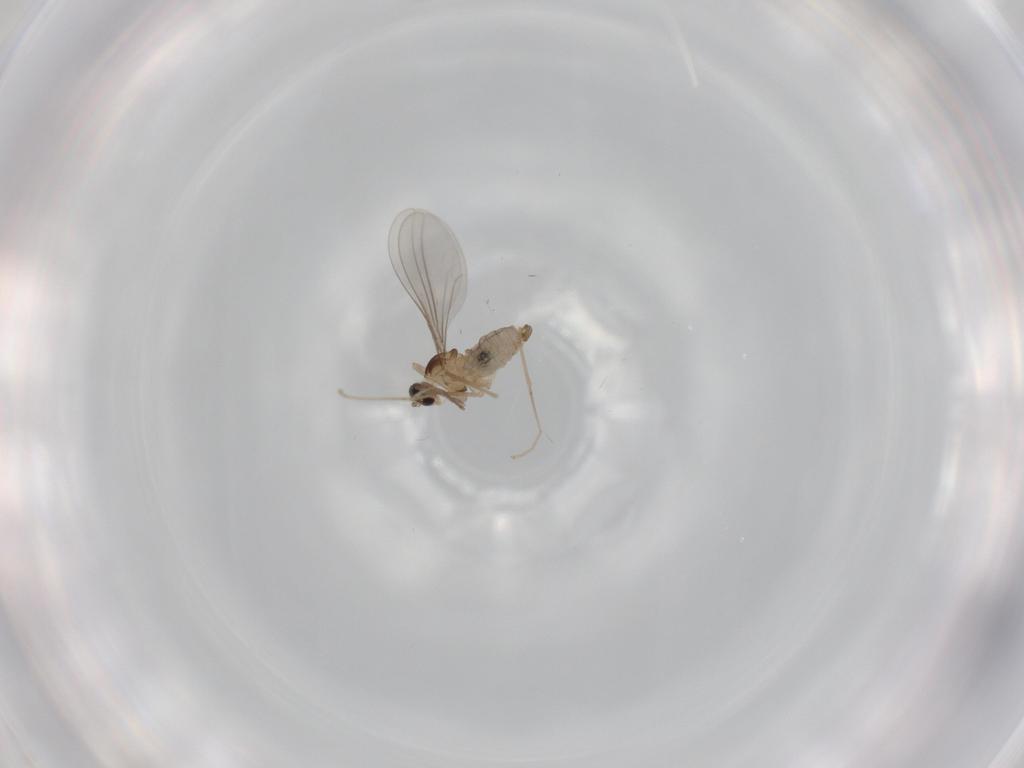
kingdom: Animalia
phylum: Arthropoda
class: Insecta
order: Diptera
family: Cecidomyiidae
